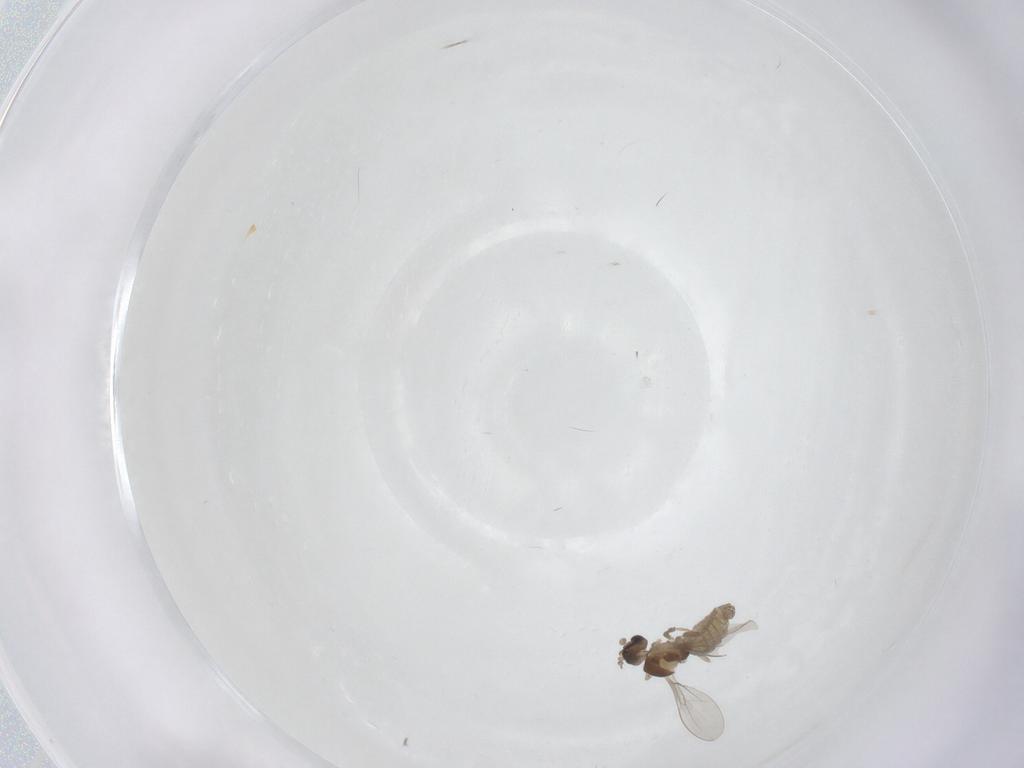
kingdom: Animalia
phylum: Arthropoda
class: Insecta
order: Diptera
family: Cecidomyiidae
